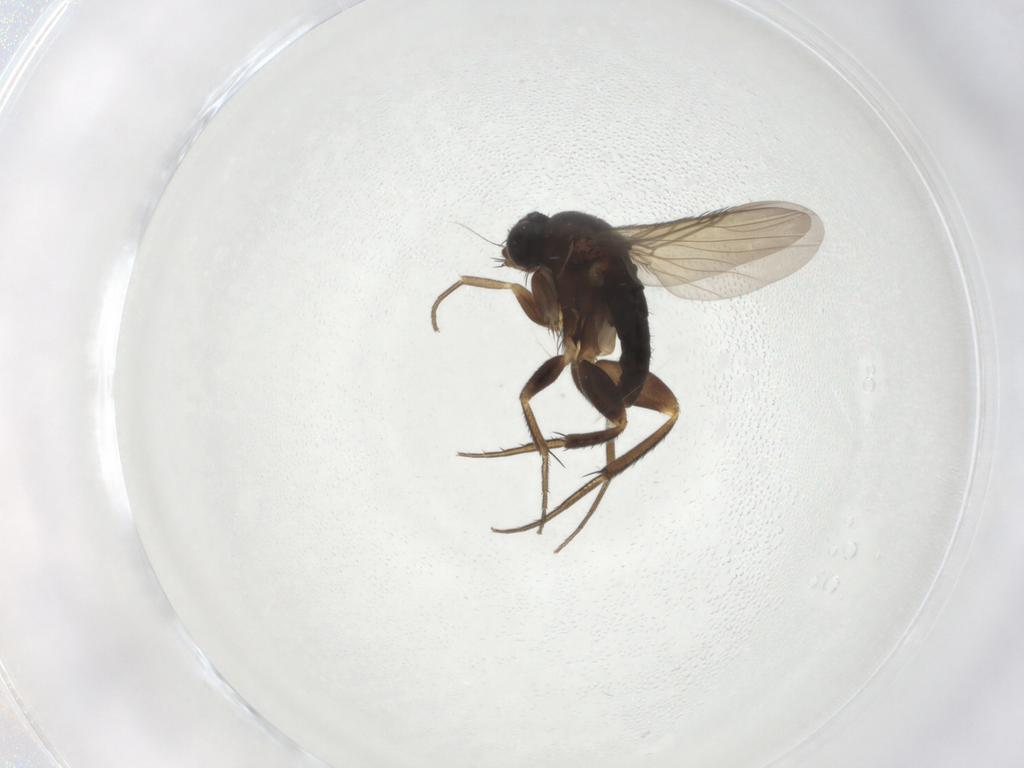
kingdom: Animalia
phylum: Arthropoda
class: Insecta
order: Diptera
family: Phoridae
